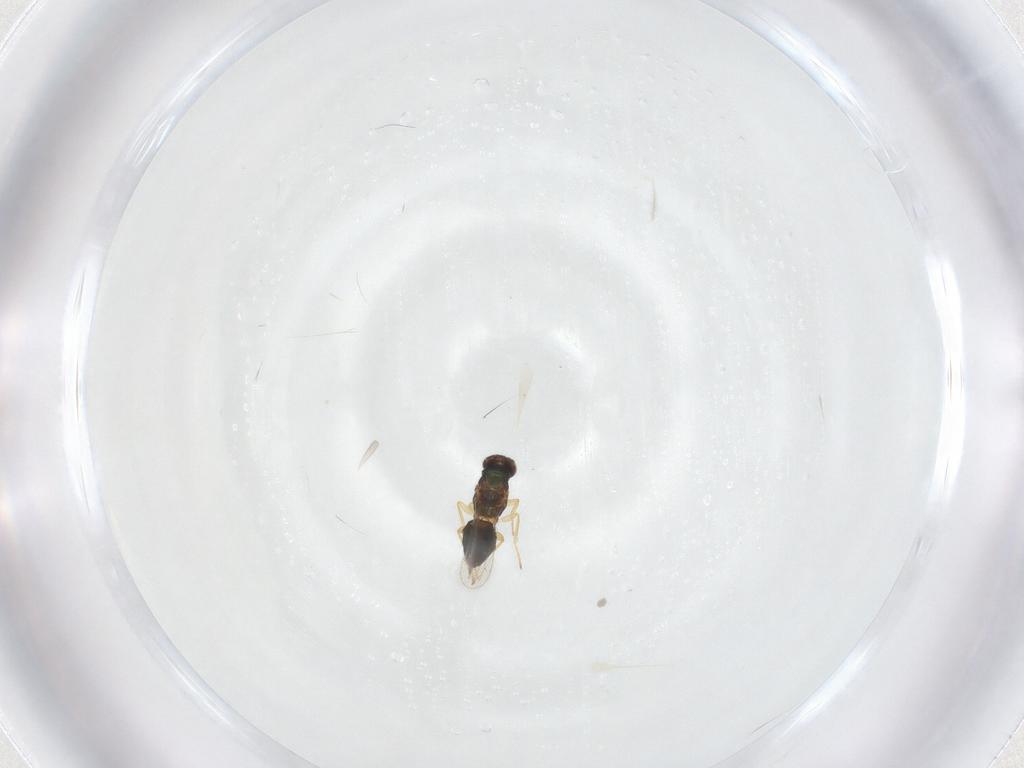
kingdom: Animalia
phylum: Arthropoda
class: Insecta
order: Hymenoptera
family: Eulophidae
